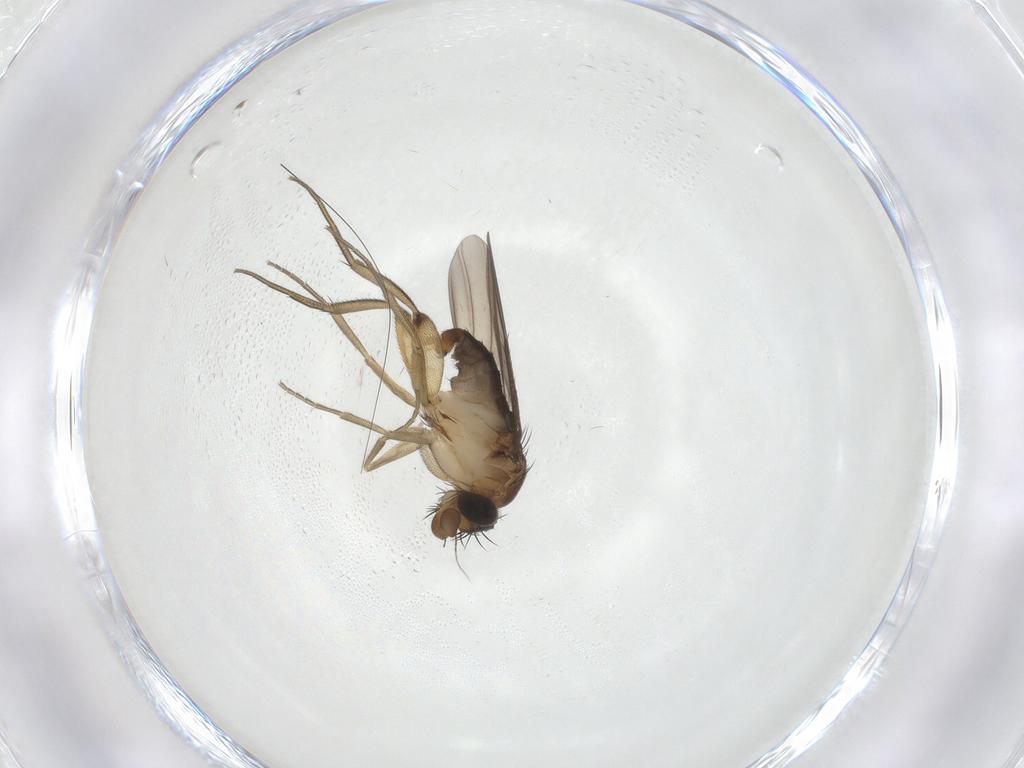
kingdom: Animalia
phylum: Arthropoda
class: Insecta
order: Diptera
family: Phoridae
